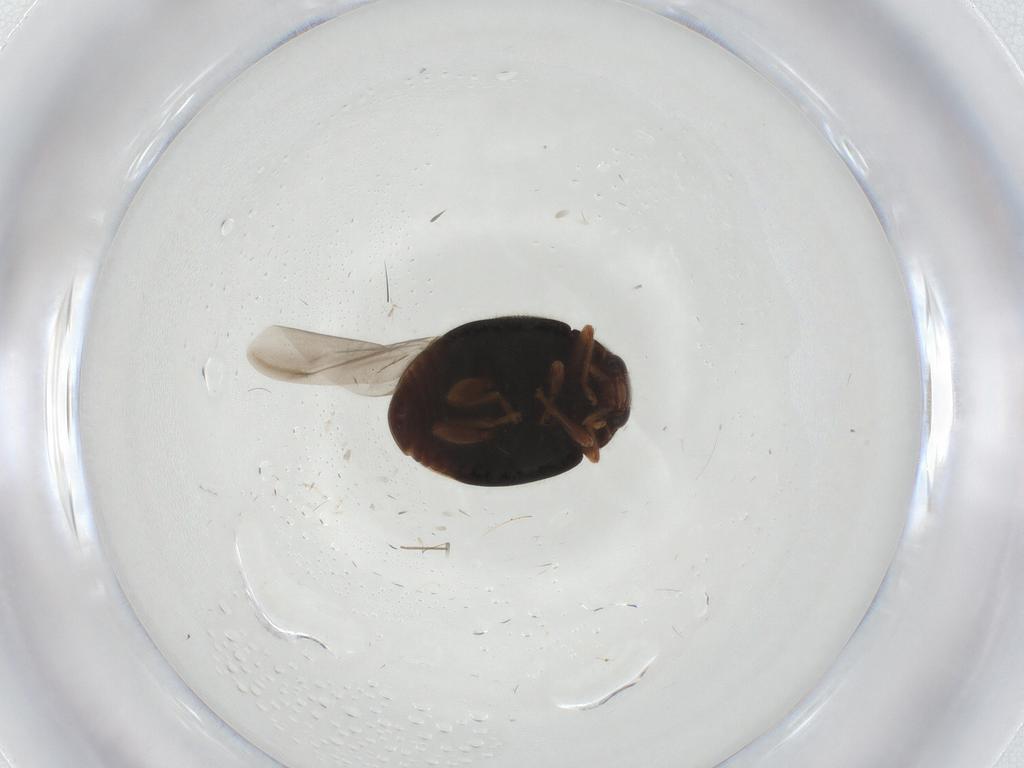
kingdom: Animalia
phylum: Arthropoda
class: Insecta
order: Coleoptera
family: Coccinellidae
